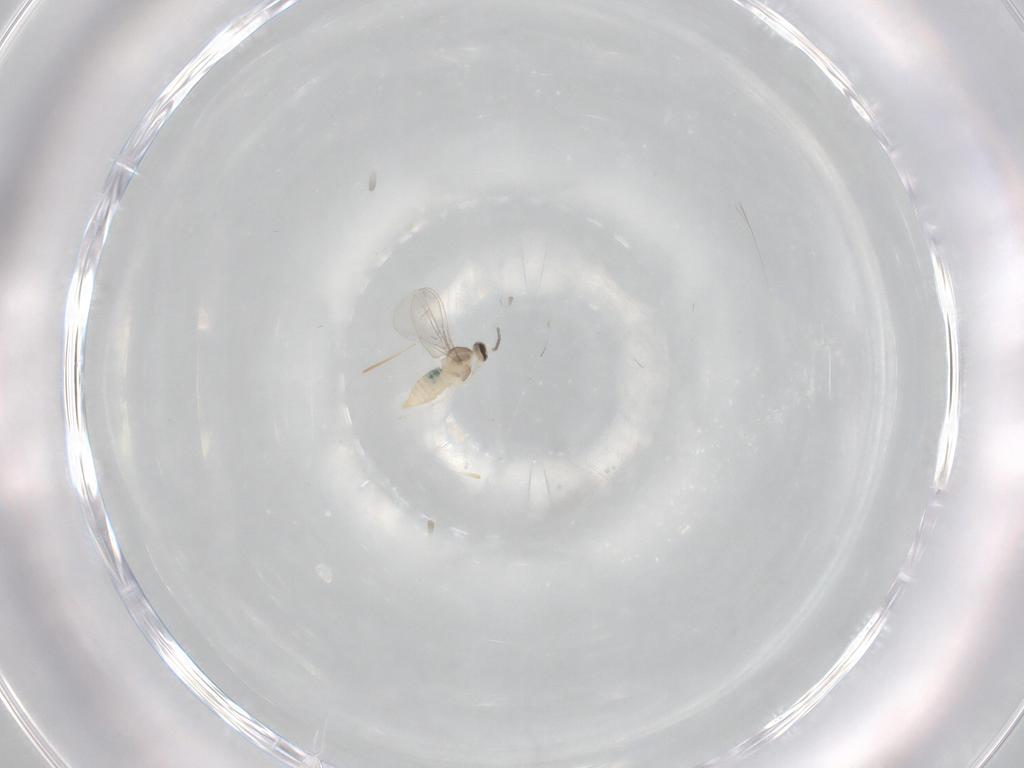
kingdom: Animalia
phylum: Arthropoda
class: Insecta
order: Diptera
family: Cecidomyiidae
